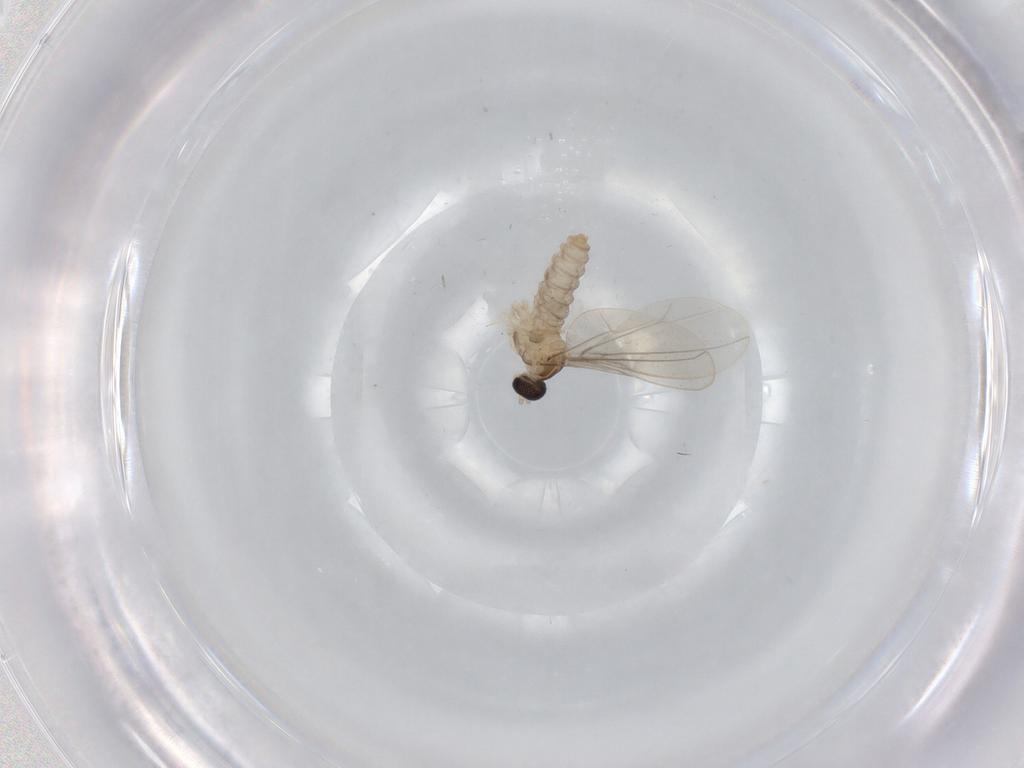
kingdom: Animalia
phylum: Arthropoda
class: Insecta
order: Diptera
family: Cecidomyiidae
